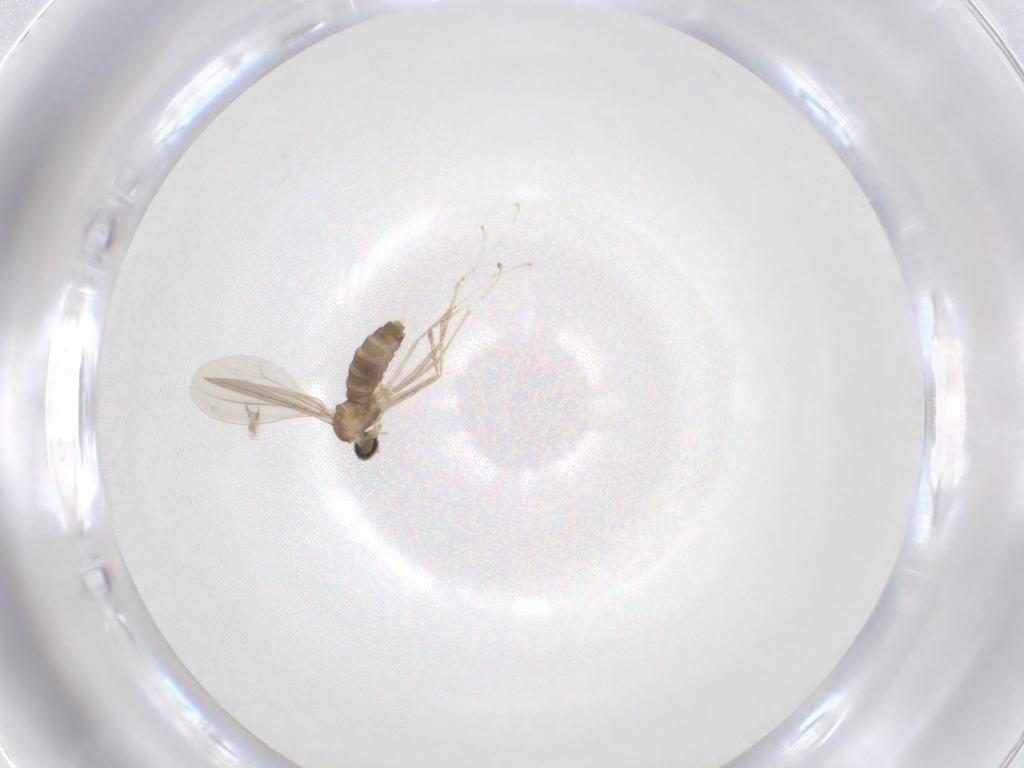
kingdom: Animalia
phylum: Arthropoda
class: Insecta
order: Diptera
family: Cecidomyiidae
